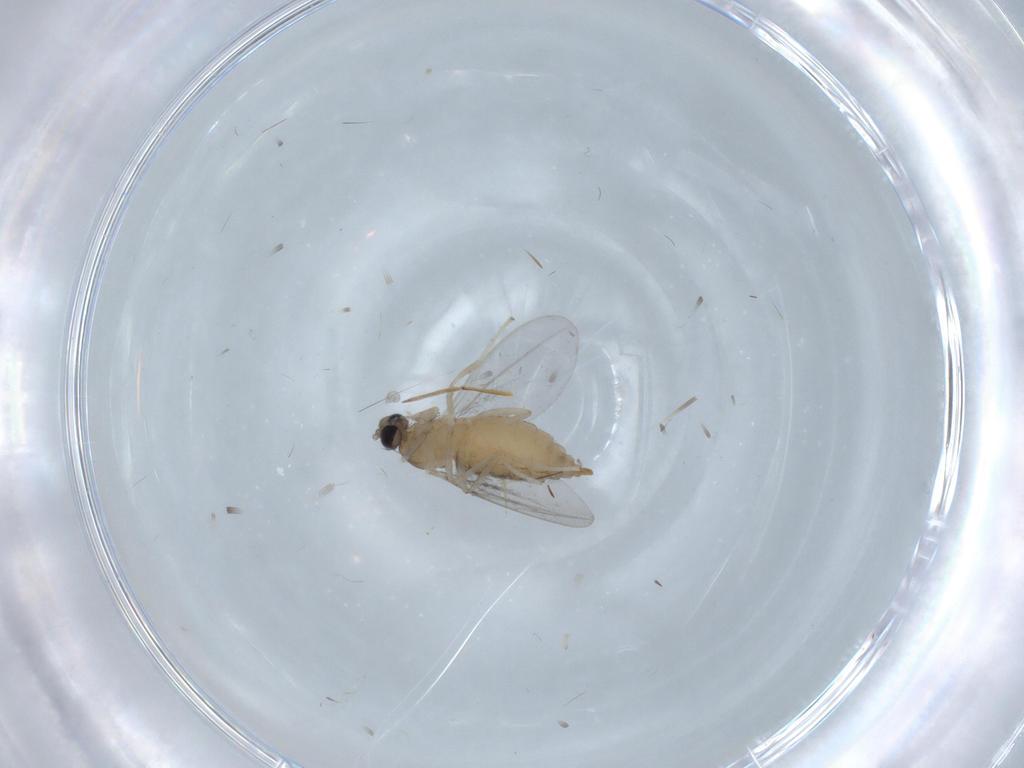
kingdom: Animalia
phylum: Arthropoda
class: Insecta
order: Diptera
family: Cecidomyiidae
